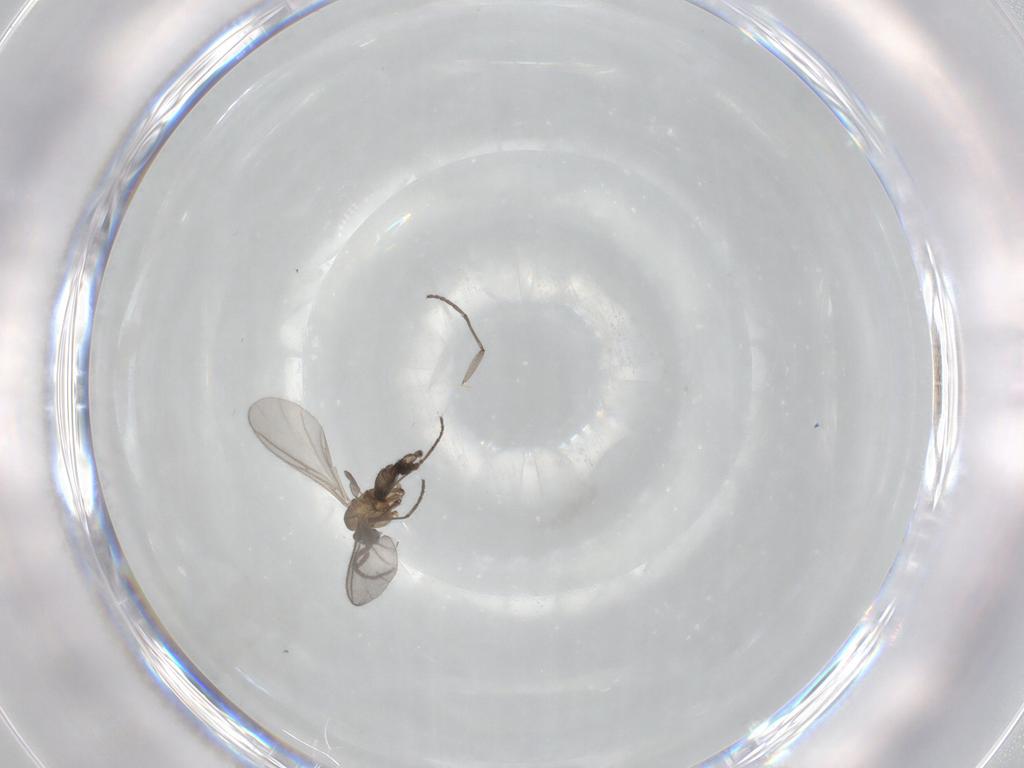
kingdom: Animalia
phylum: Arthropoda
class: Insecta
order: Diptera
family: Sciaridae
